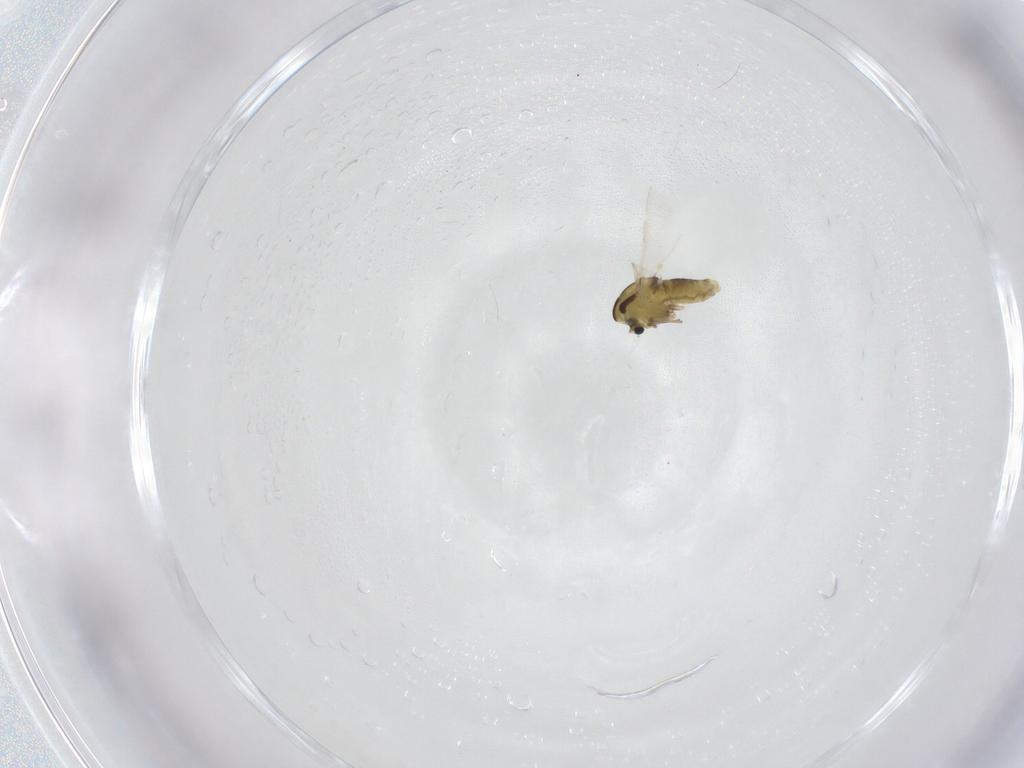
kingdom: Animalia
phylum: Arthropoda
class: Insecta
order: Diptera
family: Chironomidae
